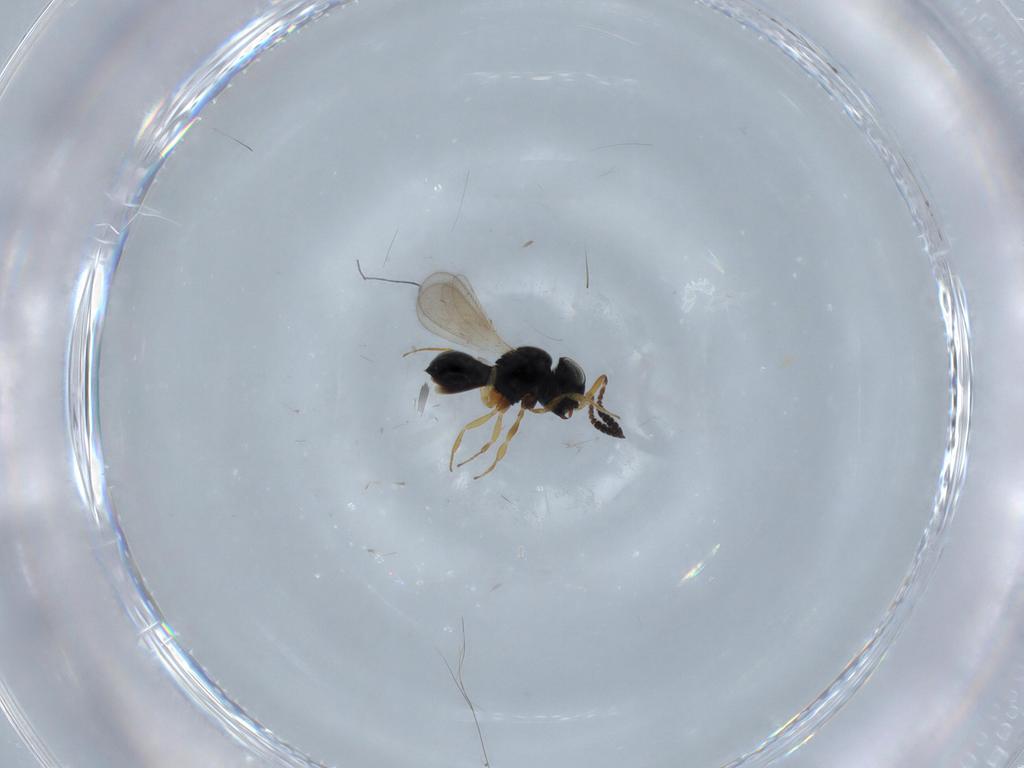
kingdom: Animalia
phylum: Arthropoda
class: Insecta
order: Hymenoptera
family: Scelionidae
